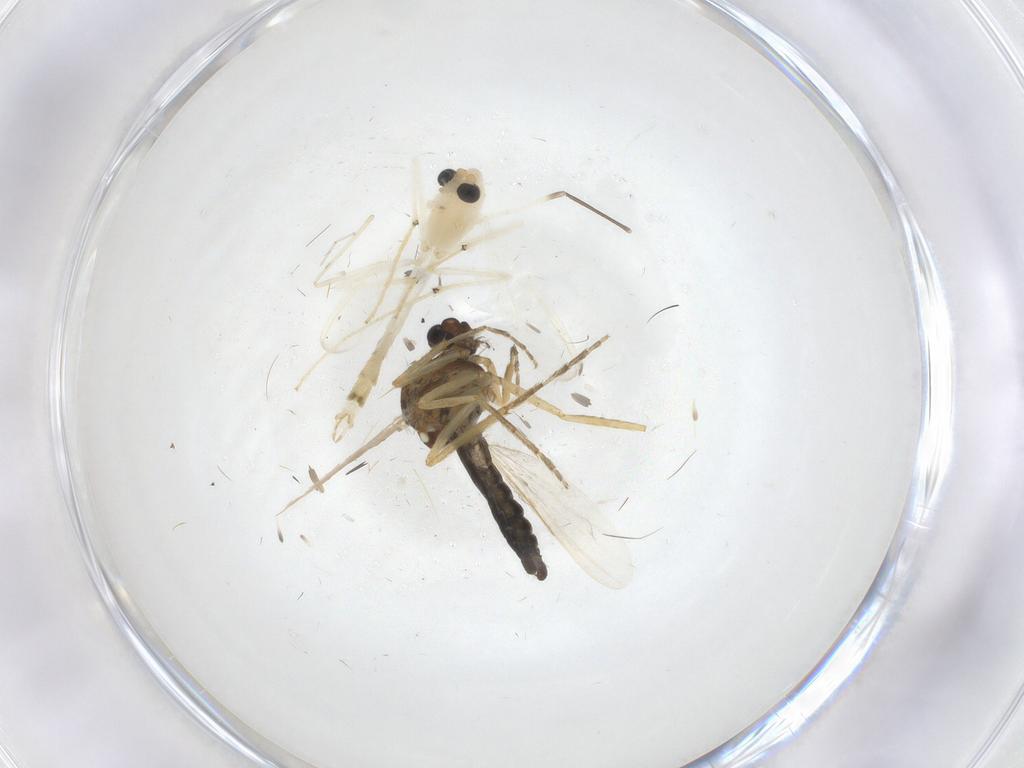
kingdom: Animalia
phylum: Arthropoda
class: Insecta
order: Diptera
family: Chironomidae
